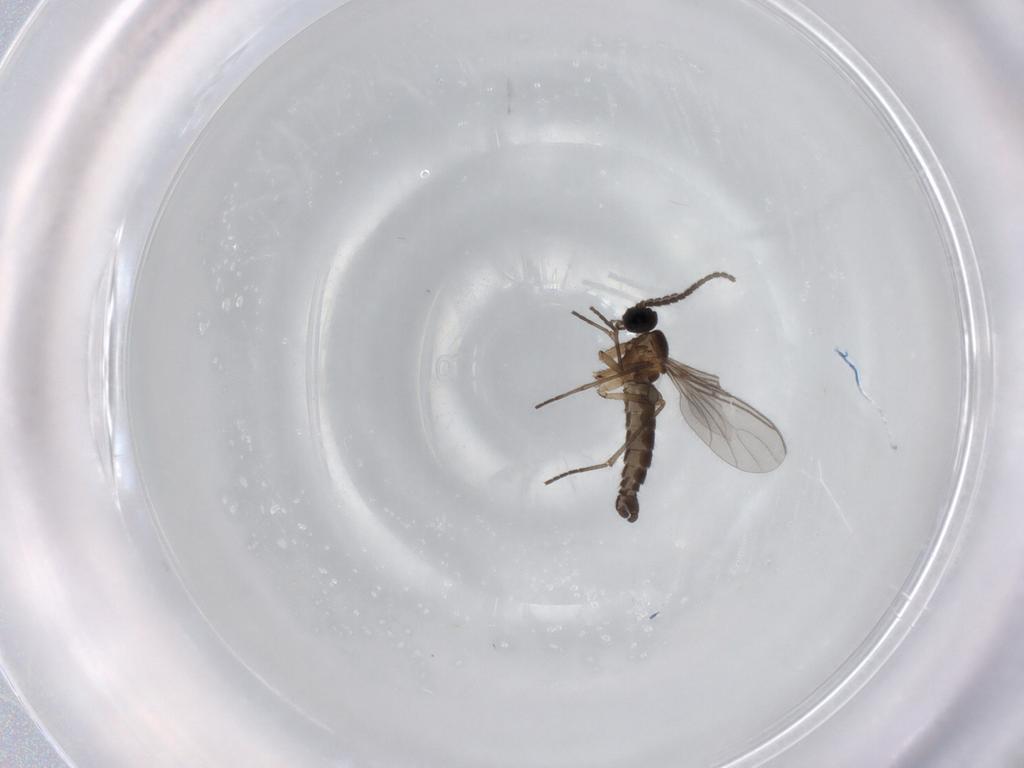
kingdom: Animalia
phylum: Arthropoda
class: Insecta
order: Diptera
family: Sciaridae
